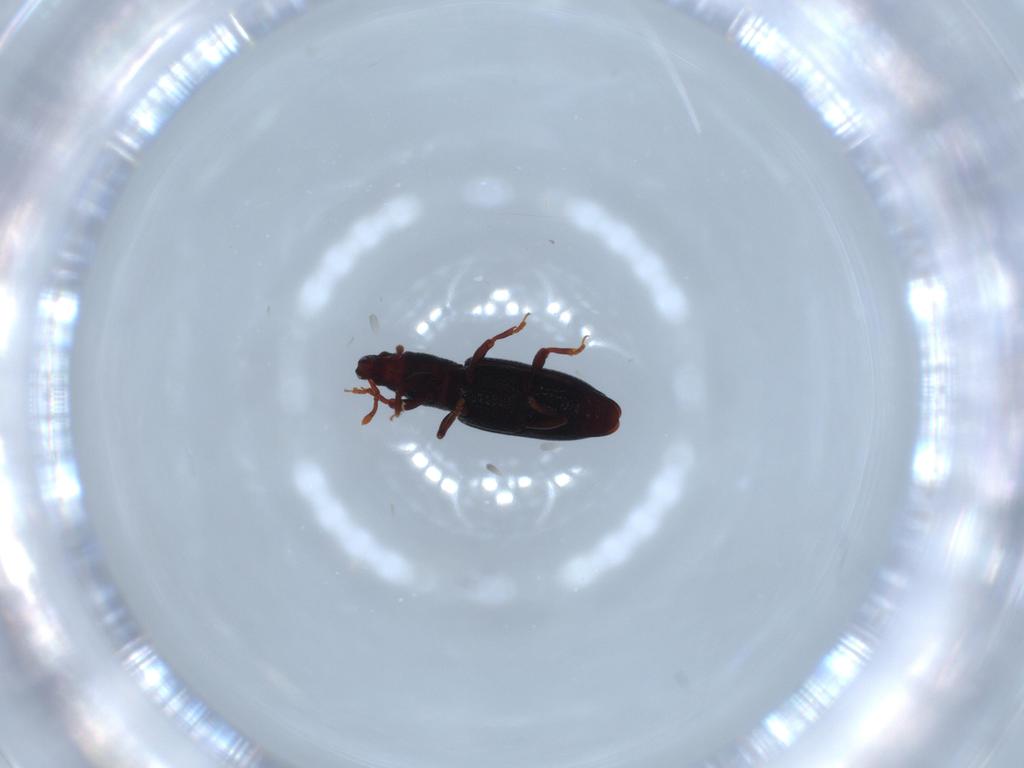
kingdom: Animalia
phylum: Arthropoda
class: Insecta
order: Coleoptera
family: Curculionidae
